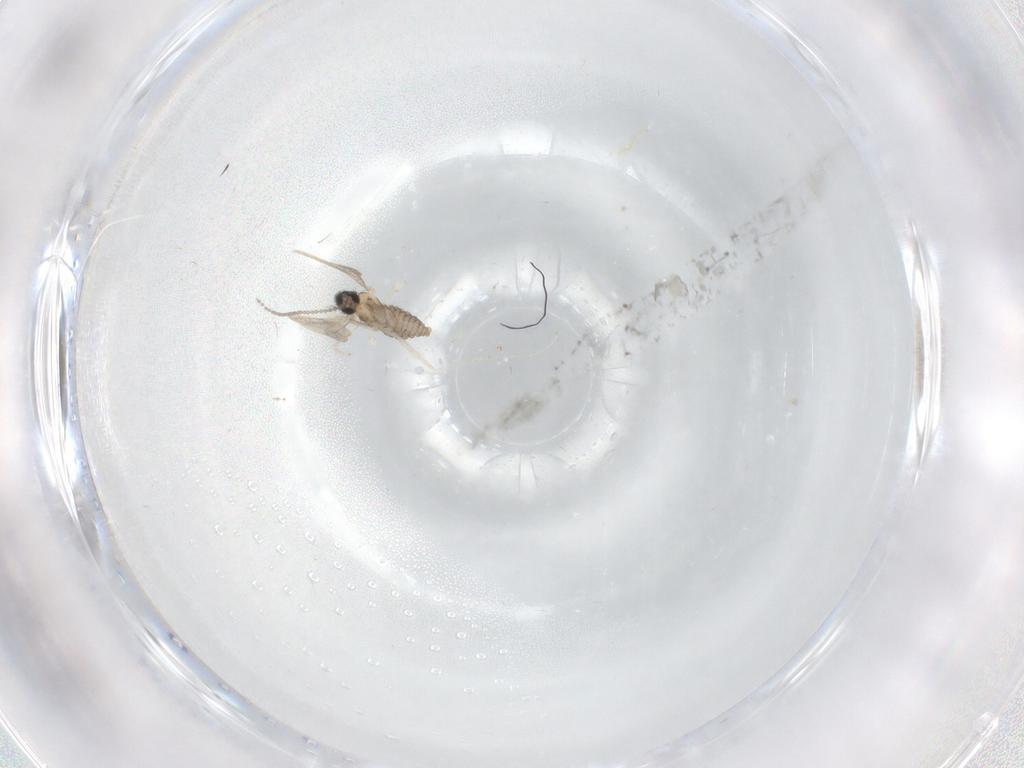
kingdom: Animalia
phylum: Arthropoda
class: Insecta
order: Diptera
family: Cecidomyiidae
